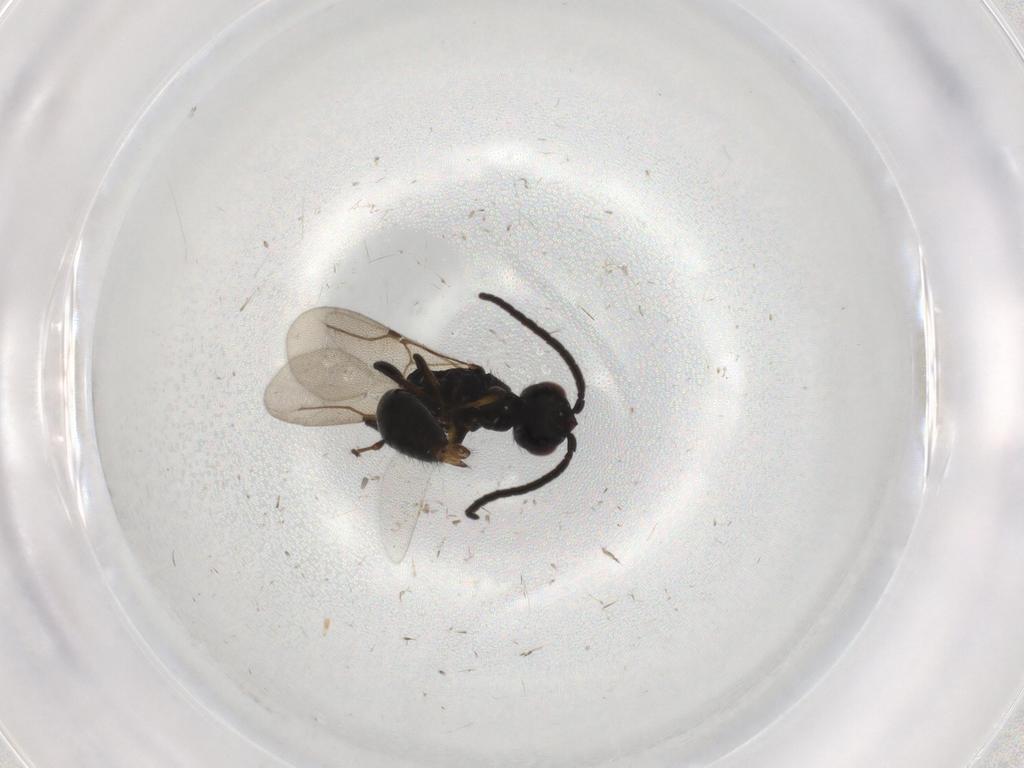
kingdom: Animalia
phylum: Arthropoda
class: Insecta
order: Hymenoptera
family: Bethylidae
